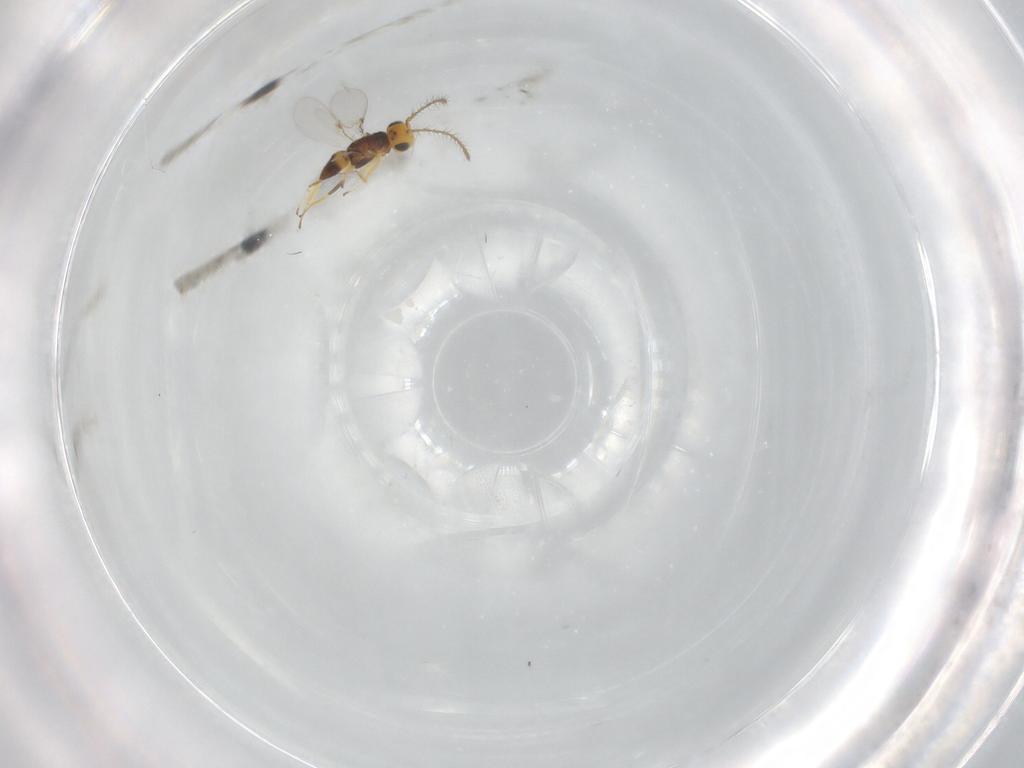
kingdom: Animalia
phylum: Arthropoda
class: Insecta
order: Hymenoptera
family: Encyrtidae
